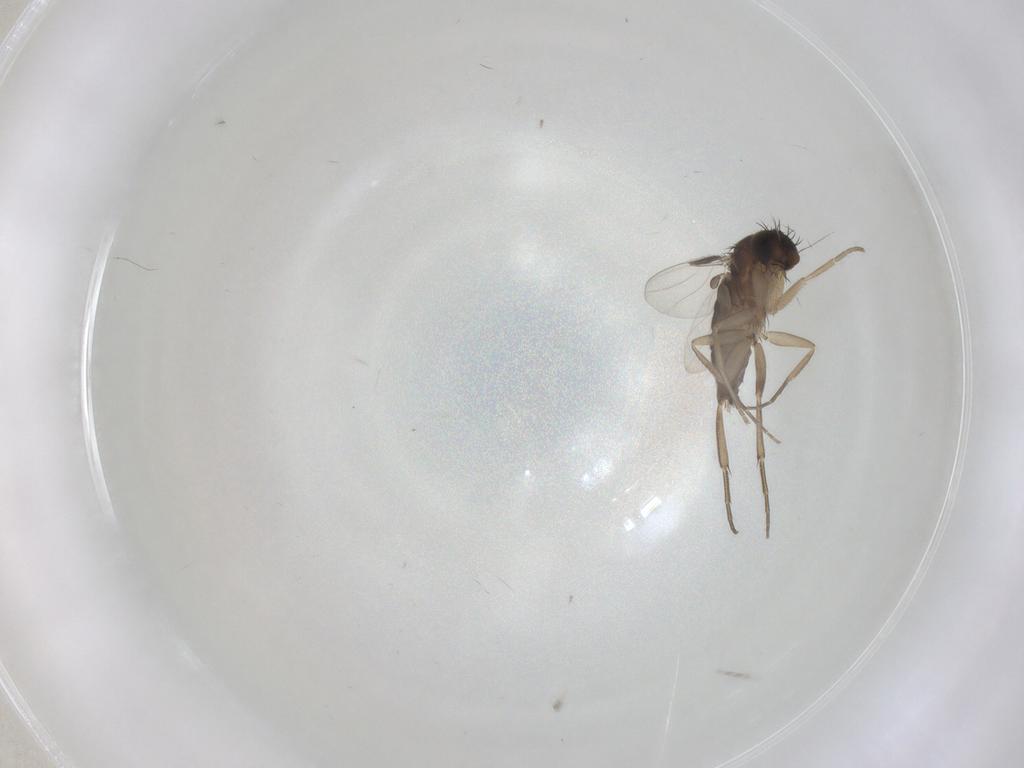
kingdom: Animalia
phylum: Arthropoda
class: Insecta
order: Diptera
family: Phoridae
